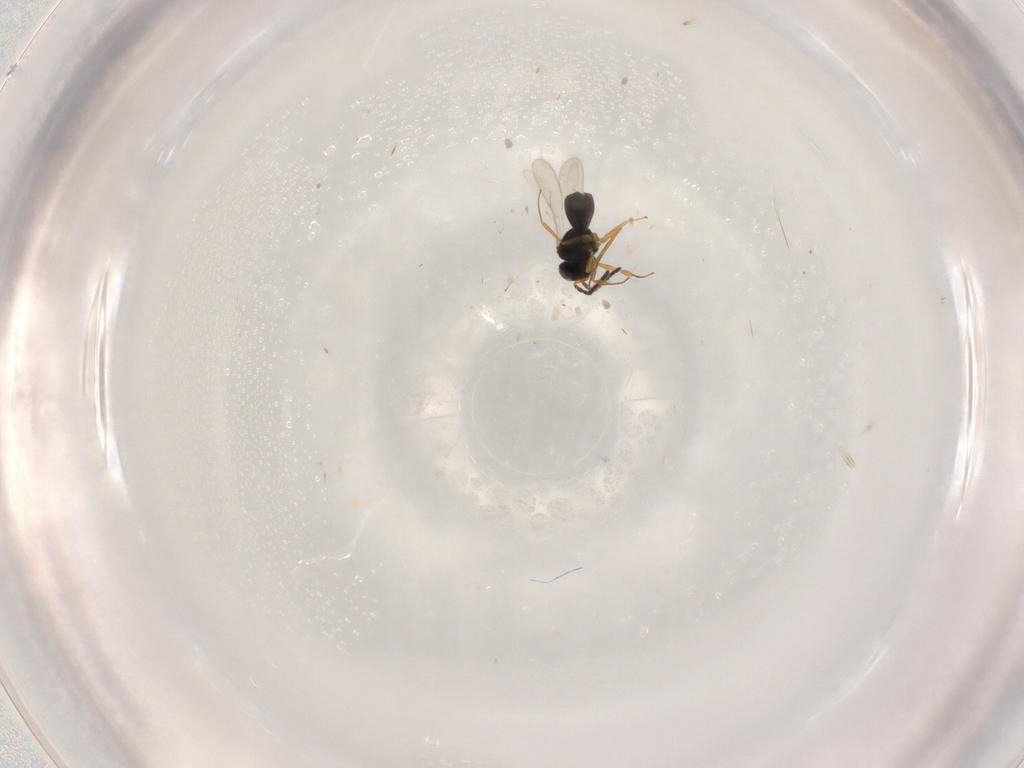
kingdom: Animalia
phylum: Arthropoda
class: Insecta
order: Hymenoptera
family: Scelionidae
